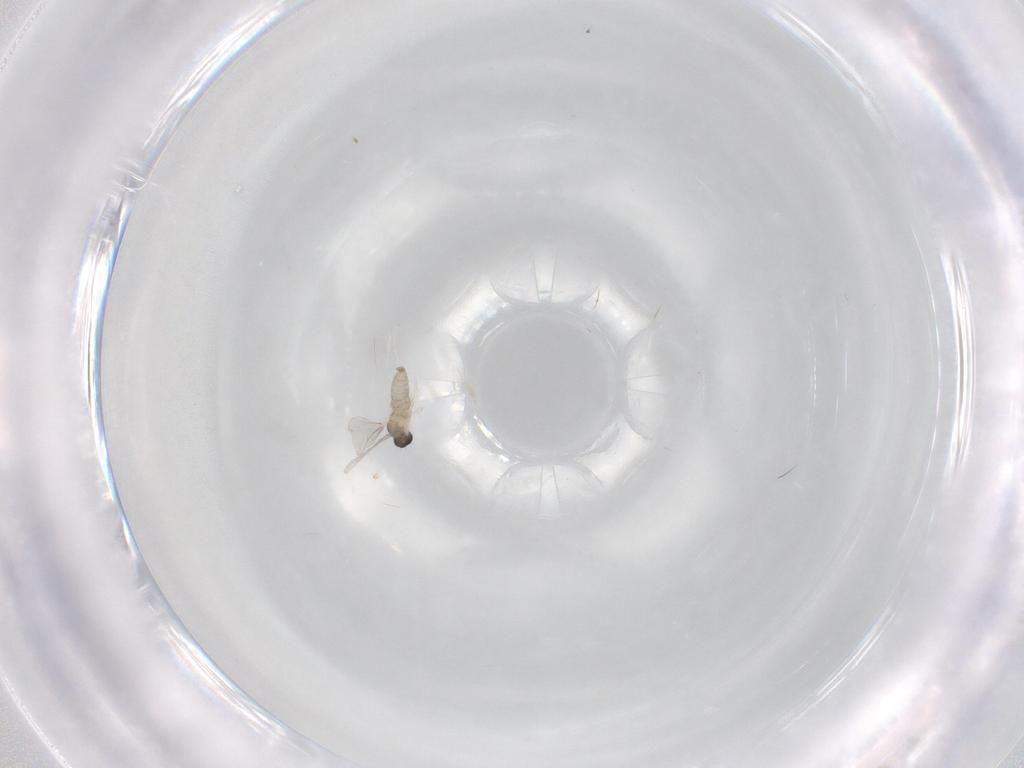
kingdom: Animalia
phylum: Arthropoda
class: Insecta
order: Diptera
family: Cecidomyiidae
